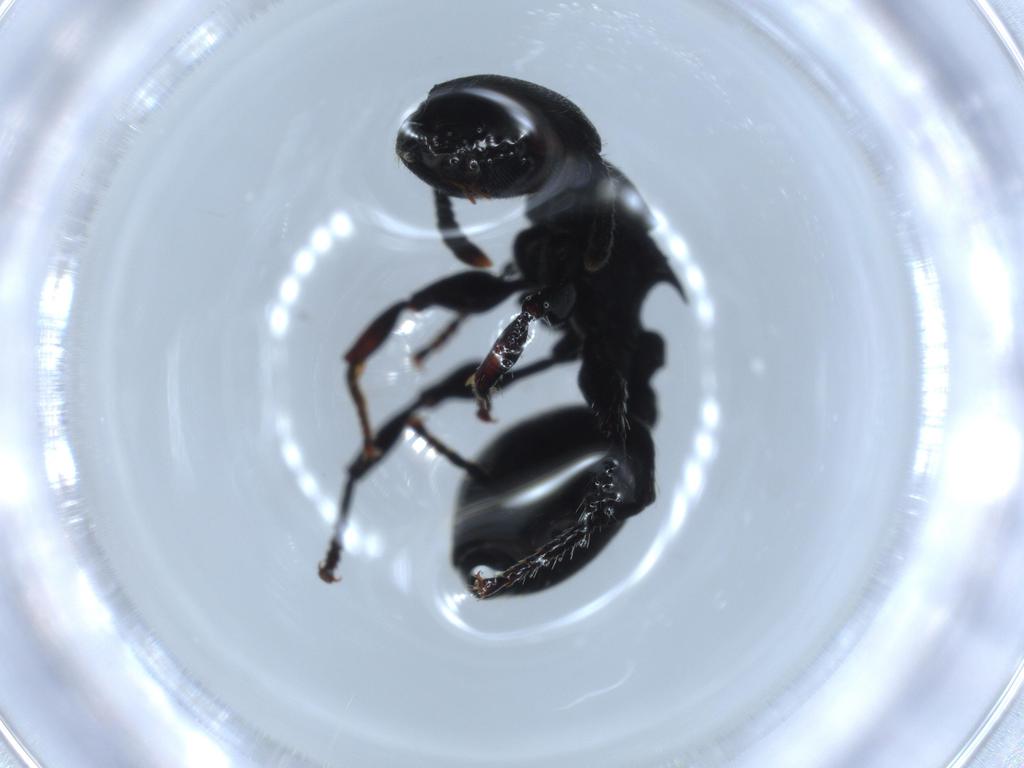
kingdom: Animalia
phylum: Arthropoda
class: Insecta
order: Hymenoptera
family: Formicidae
